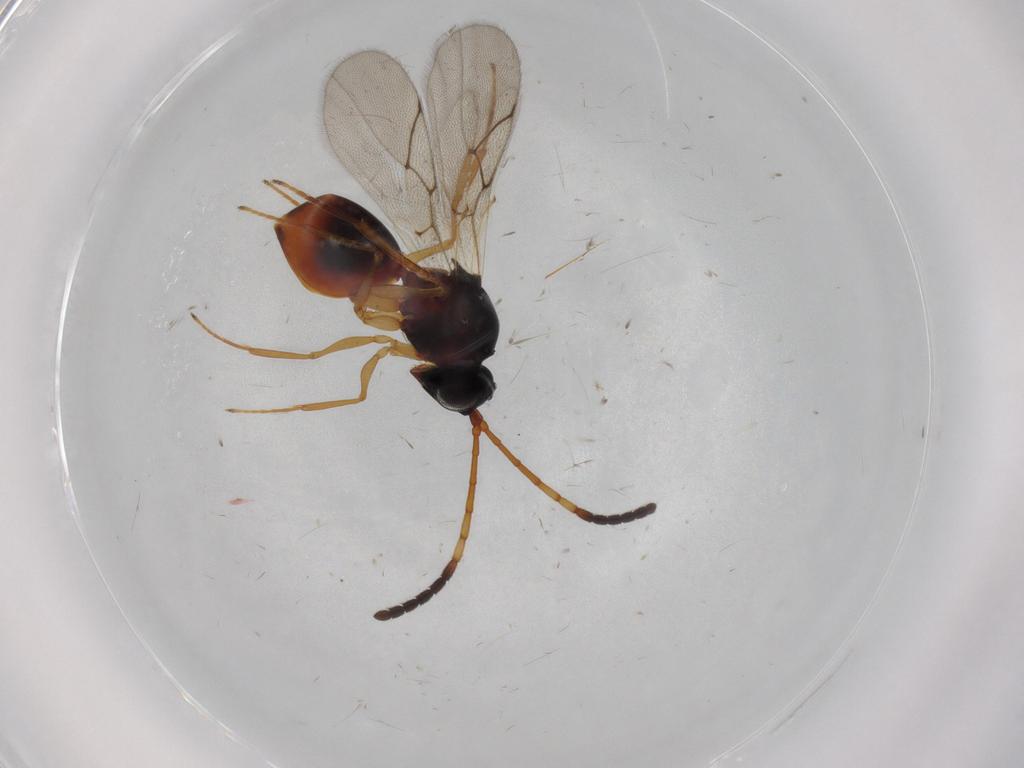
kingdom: Animalia
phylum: Arthropoda
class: Insecta
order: Hymenoptera
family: Figitidae
